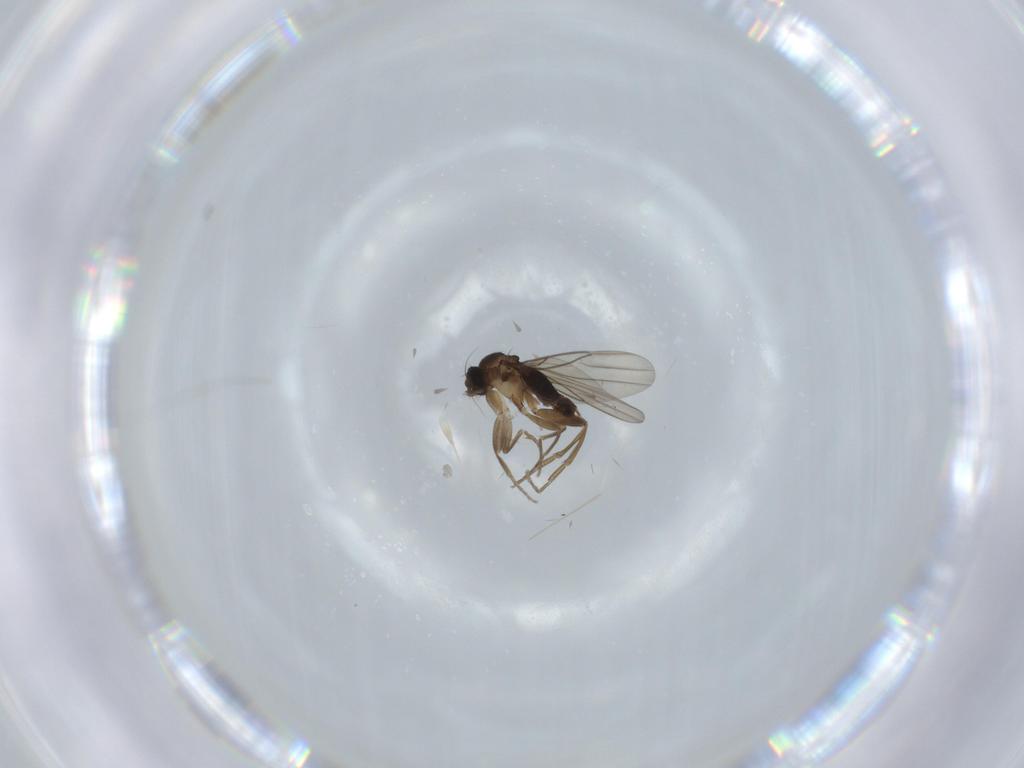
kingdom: Animalia
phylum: Arthropoda
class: Insecta
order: Diptera
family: Phoridae
